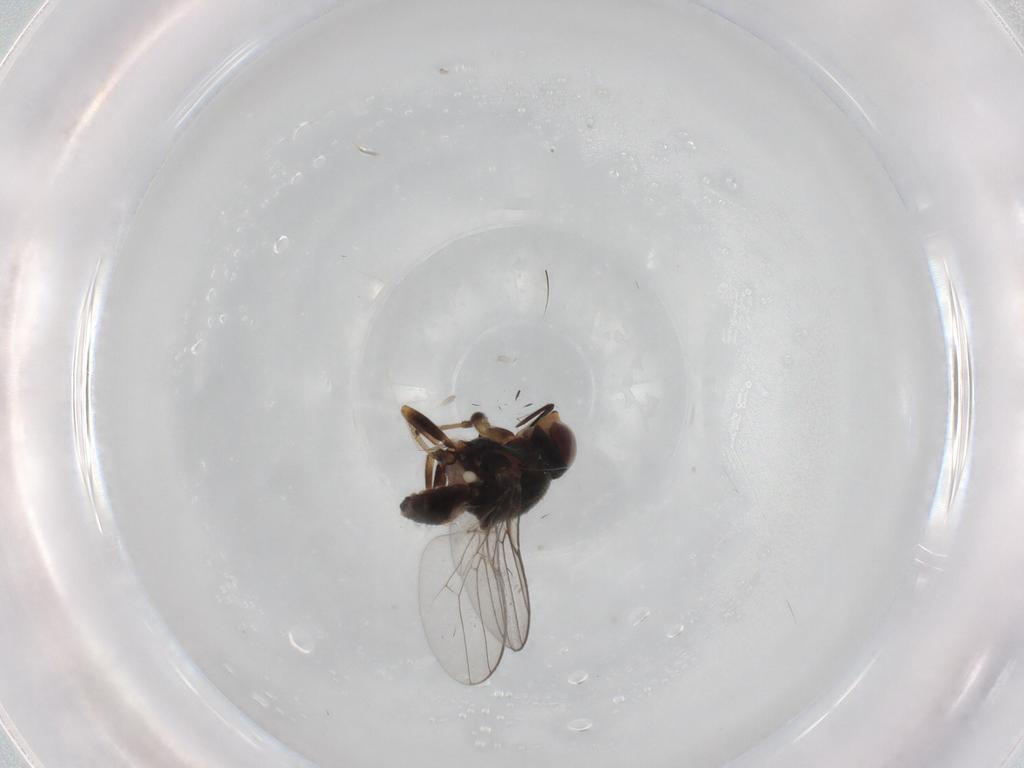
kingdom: Animalia
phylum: Arthropoda
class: Insecta
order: Diptera
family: Chloropidae
